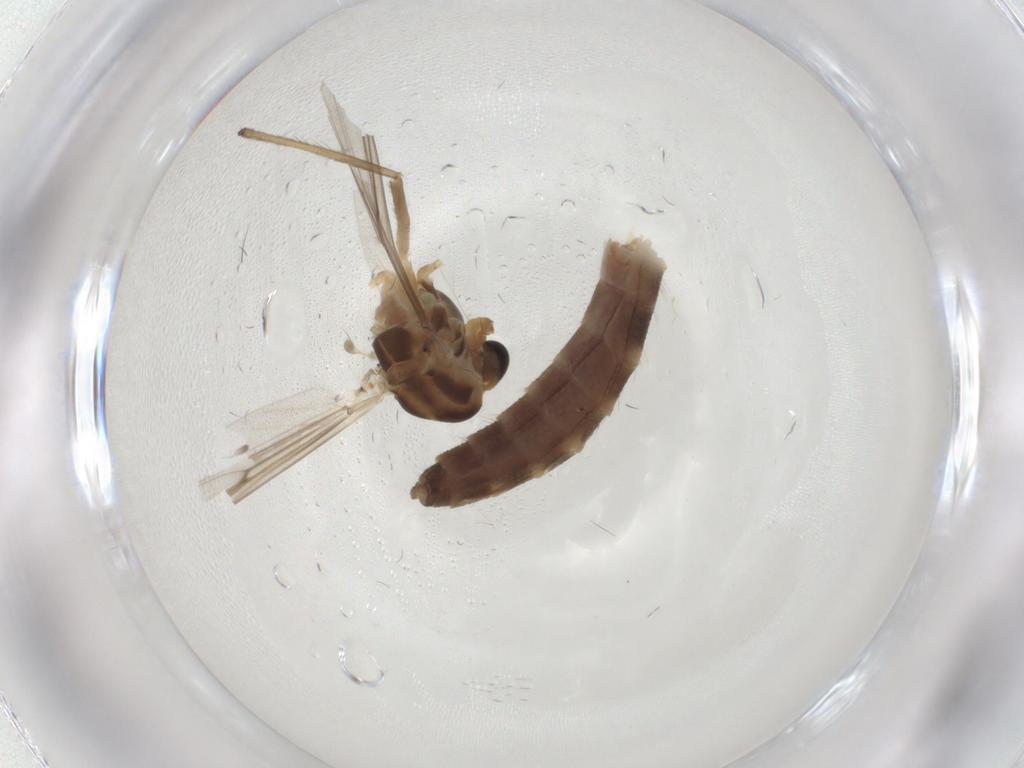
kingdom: Animalia
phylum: Arthropoda
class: Insecta
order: Diptera
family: Chironomidae
